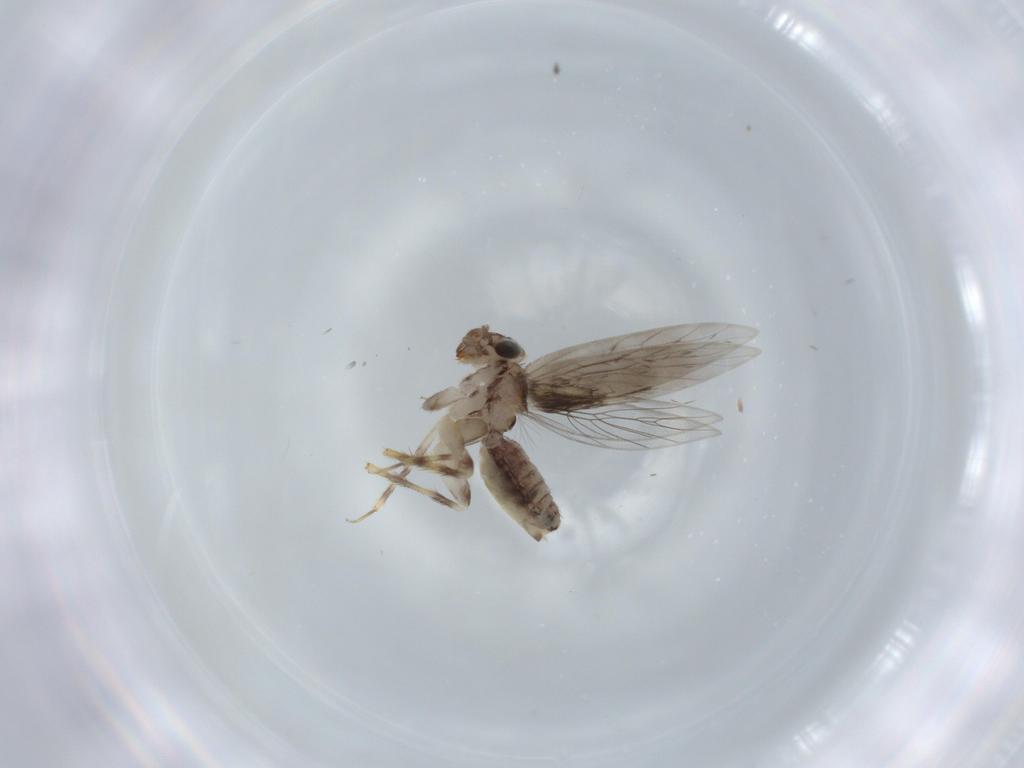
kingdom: Animalia
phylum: Arthropoda
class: Insecta
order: Psocodea
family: Lepidopsocidae
